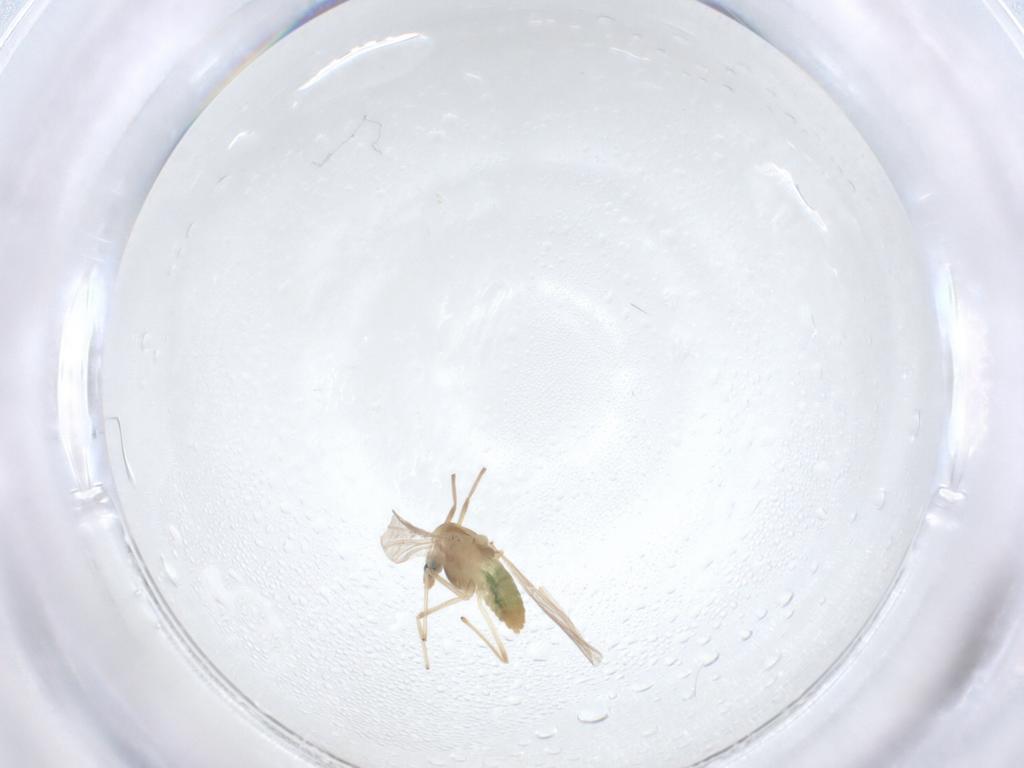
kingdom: Animalia
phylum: Arthropoda
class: Insecta
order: Diptera
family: Chironomidae
